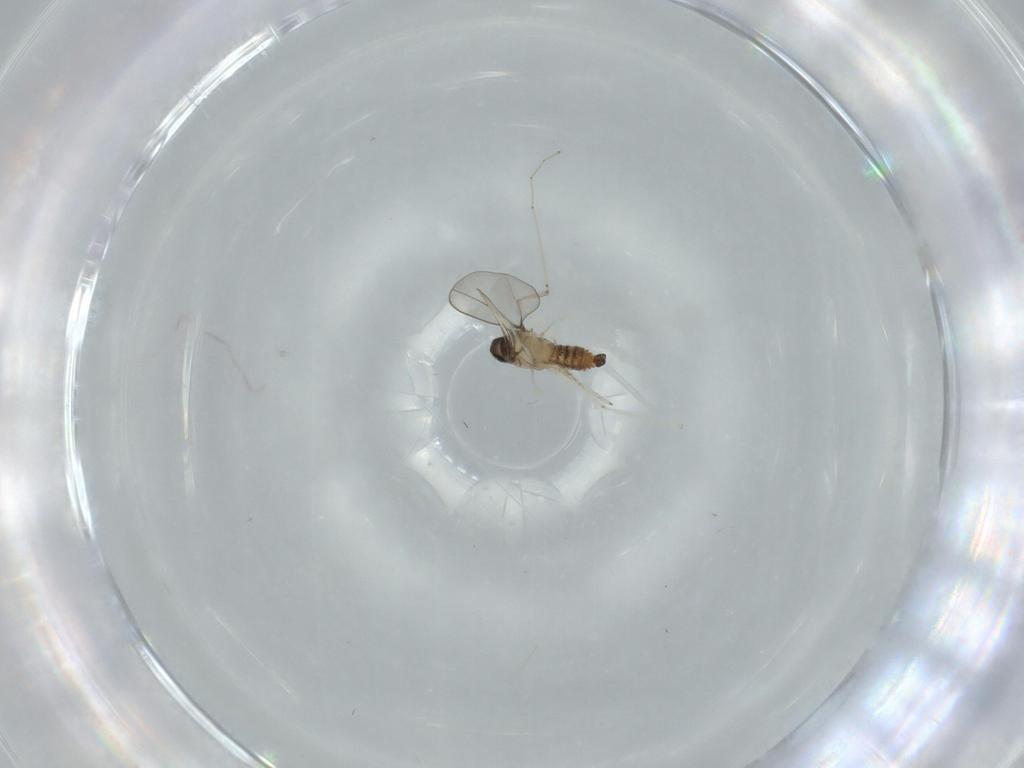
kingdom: Animalia
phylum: Arthropoda
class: Insecta
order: Diptera
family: Cecidomyiidae
